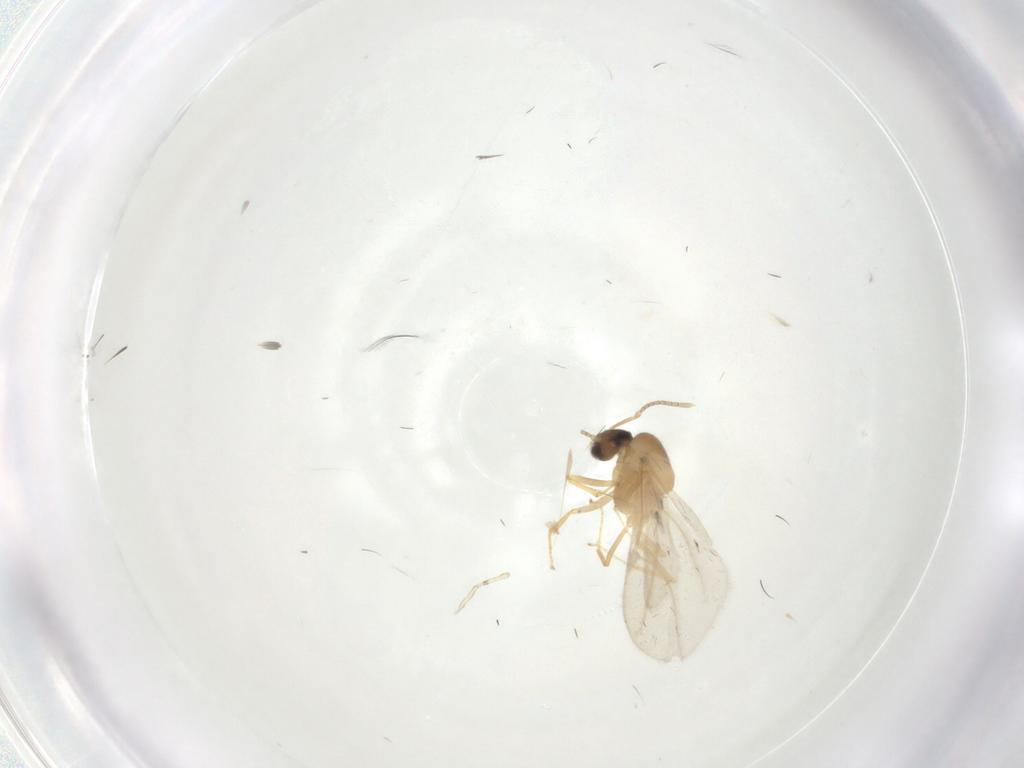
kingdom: Animalia
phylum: Arthropoda
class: Insecta
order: Hymenoptera
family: Formicidae
